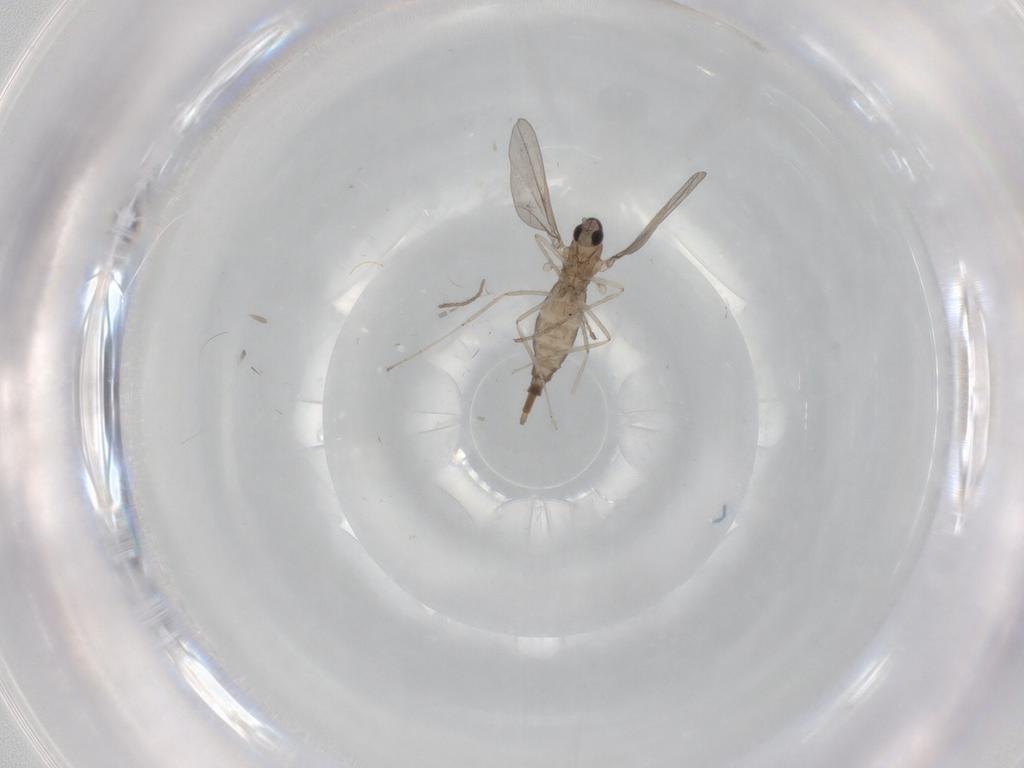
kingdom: Animalia
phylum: Arthropoda
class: Insecta
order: Diptera
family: Cecidomyiidae
